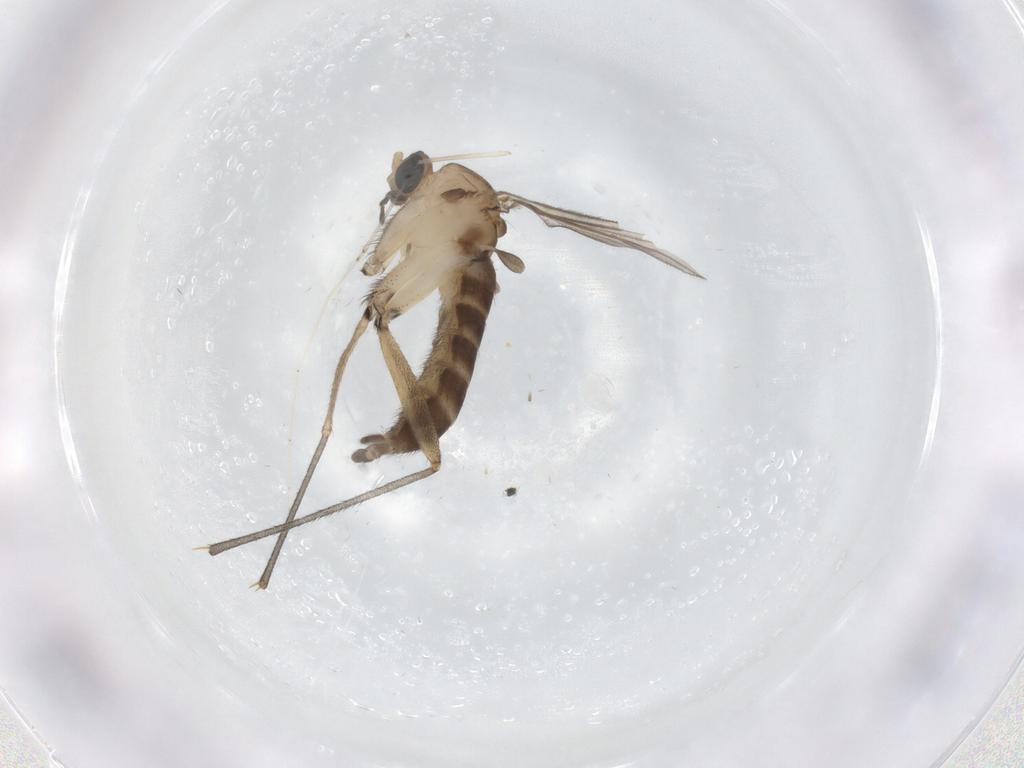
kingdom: Animalia
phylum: Arthropoda
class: Insecta
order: Diptera
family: Sciaridae
